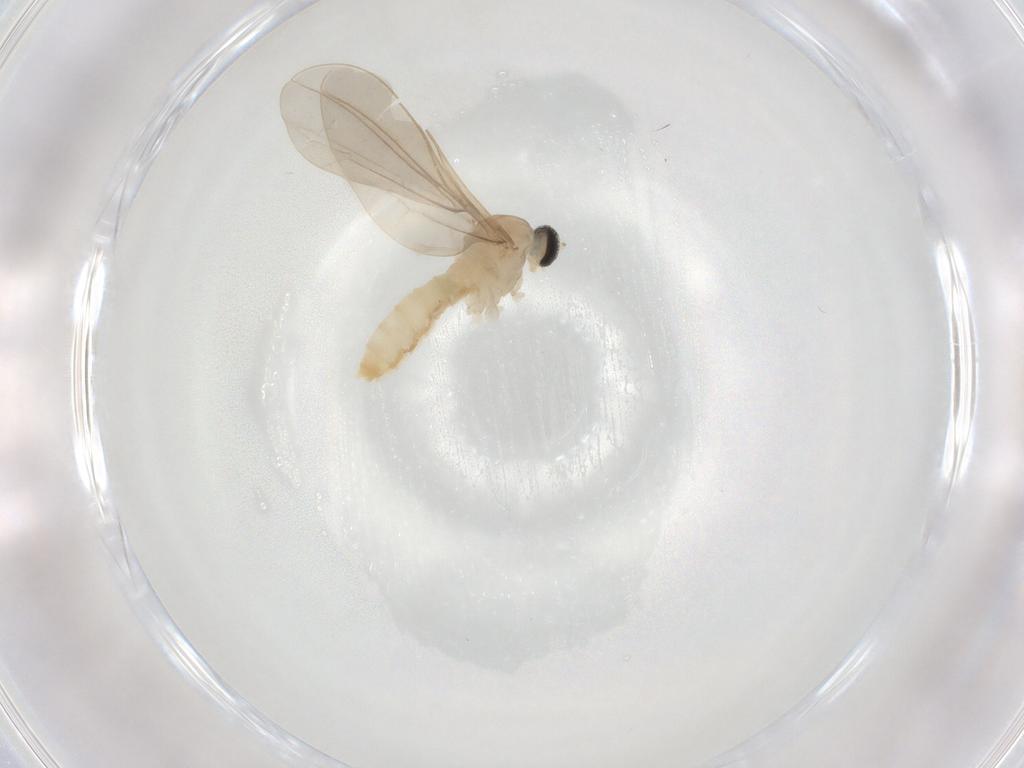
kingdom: Animalia
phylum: Arthropoda
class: Insecta
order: Diptera
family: Cecidomyiidae
